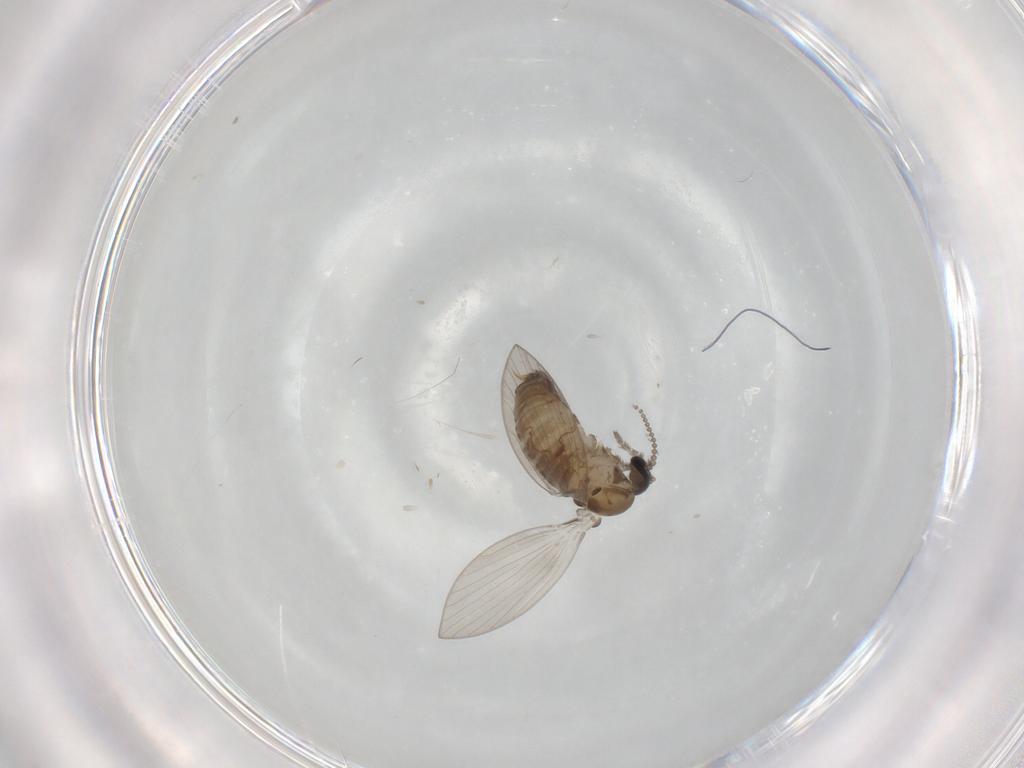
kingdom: Animalia
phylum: Arthropoda
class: Insecta
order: Diptera
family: Psychodidae
